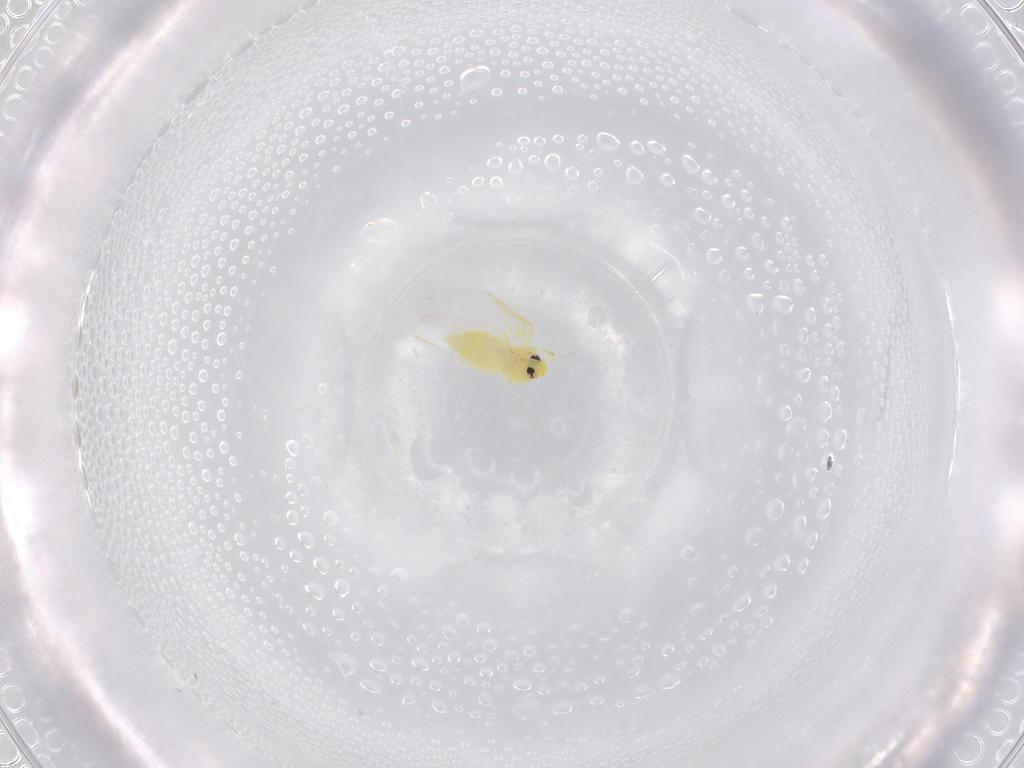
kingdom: Animalia
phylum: Arthropoda
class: Insecta
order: Hemiptera
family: Aleyrodidae
